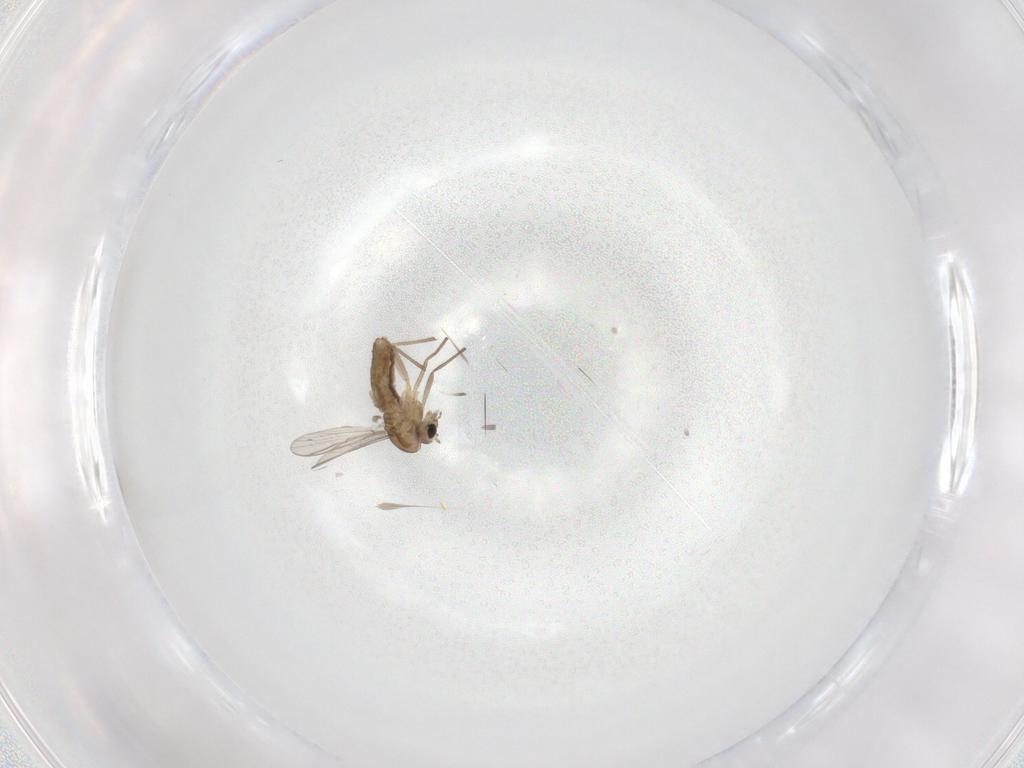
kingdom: Animalia
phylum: Arthropoda
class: Insecta
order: Diptera
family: Chironomidae
